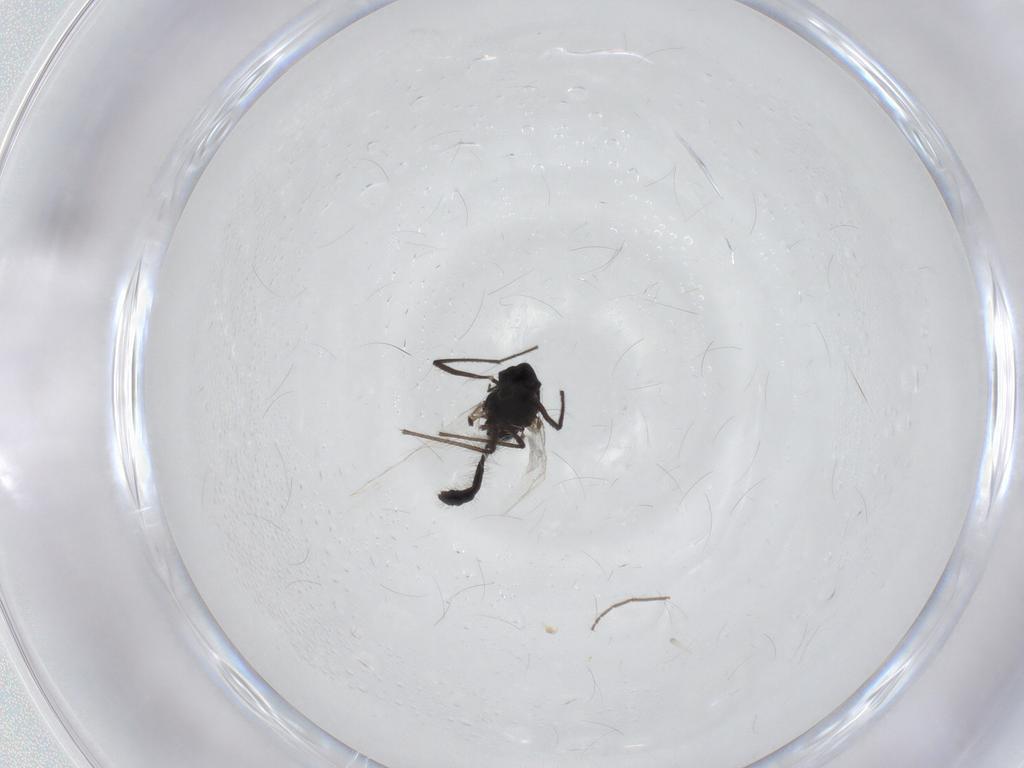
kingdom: Animalia
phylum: Arthropoda
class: Insecta
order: Diptera
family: Chironomidae
